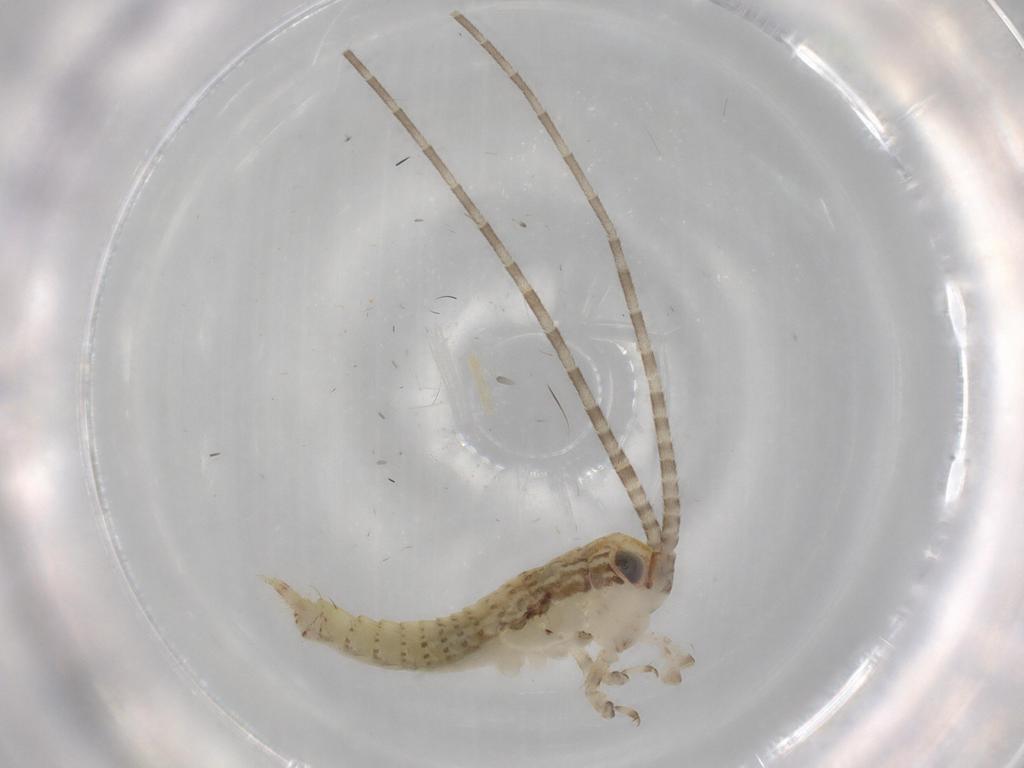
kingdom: Animalia
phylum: Arthropoda
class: Insecta
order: Orthoptera
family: Gryllidae
